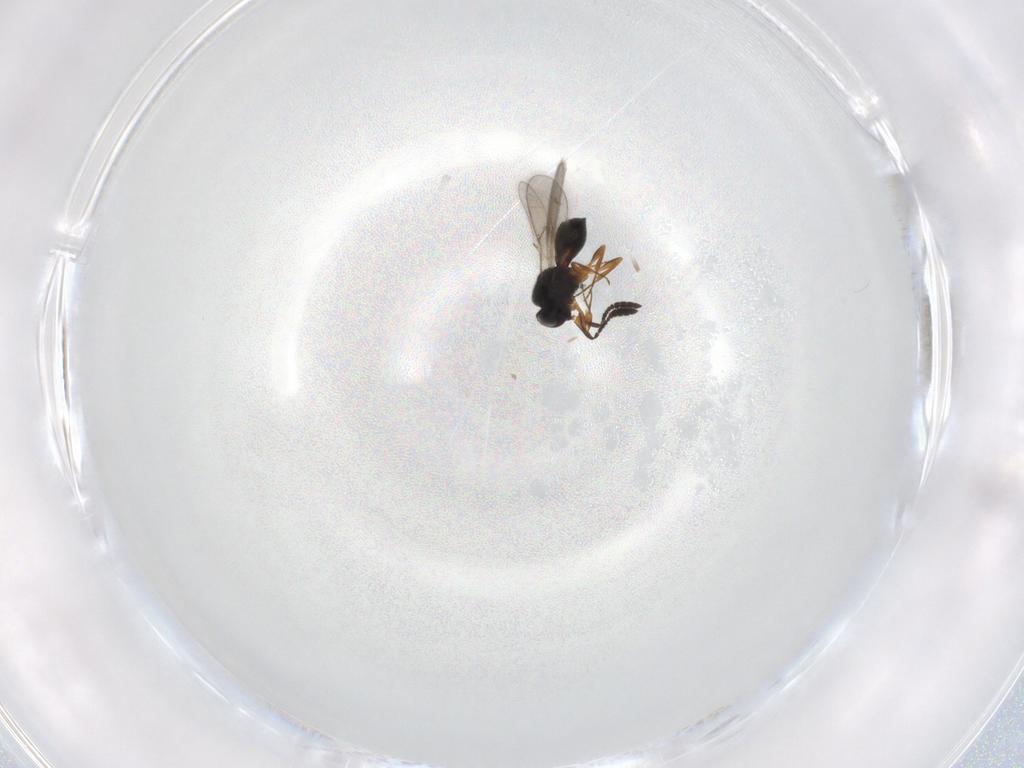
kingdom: Animalia
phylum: Arthropoda
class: Insecta
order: Hymenoptera
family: Scelionidae
